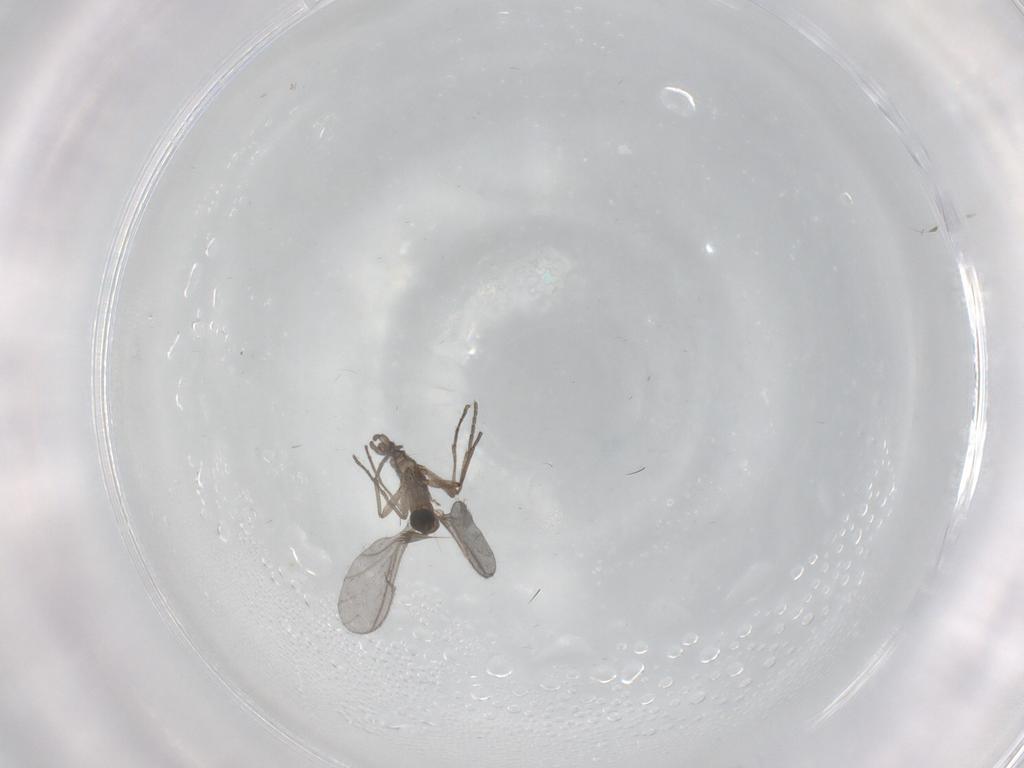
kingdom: Animalia
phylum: Arthropoda
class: Insecta
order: Diptera
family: Sciaridae
